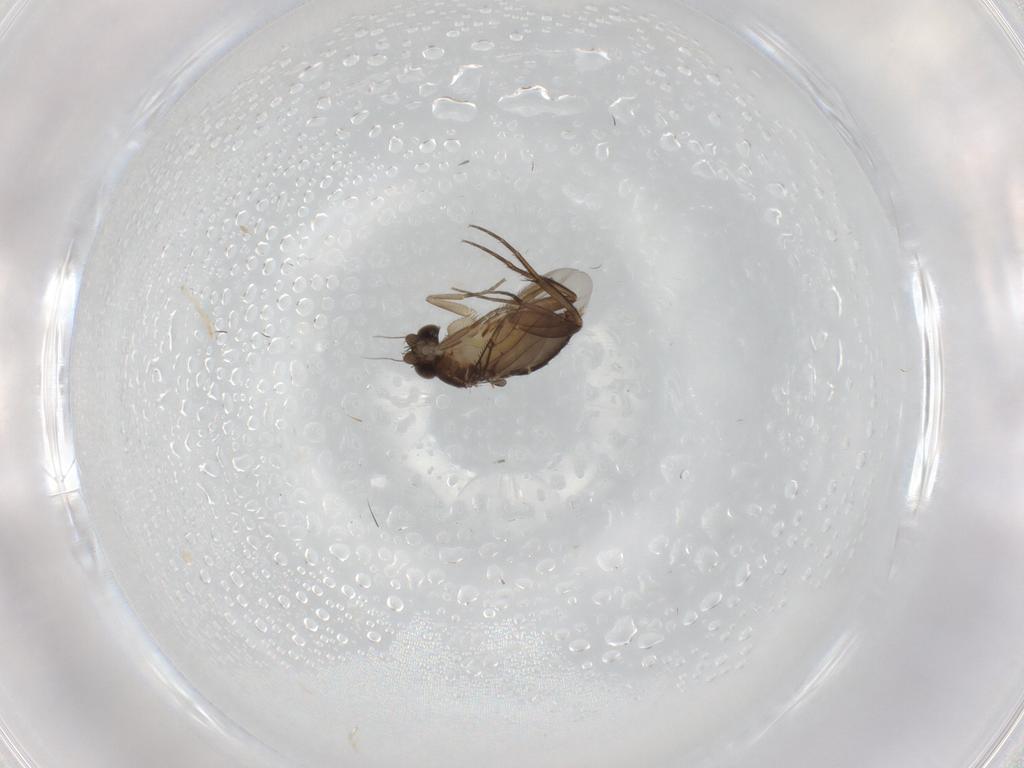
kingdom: Animalia
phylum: Arthropoda
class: Insecta
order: Diptera
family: Phoridae
